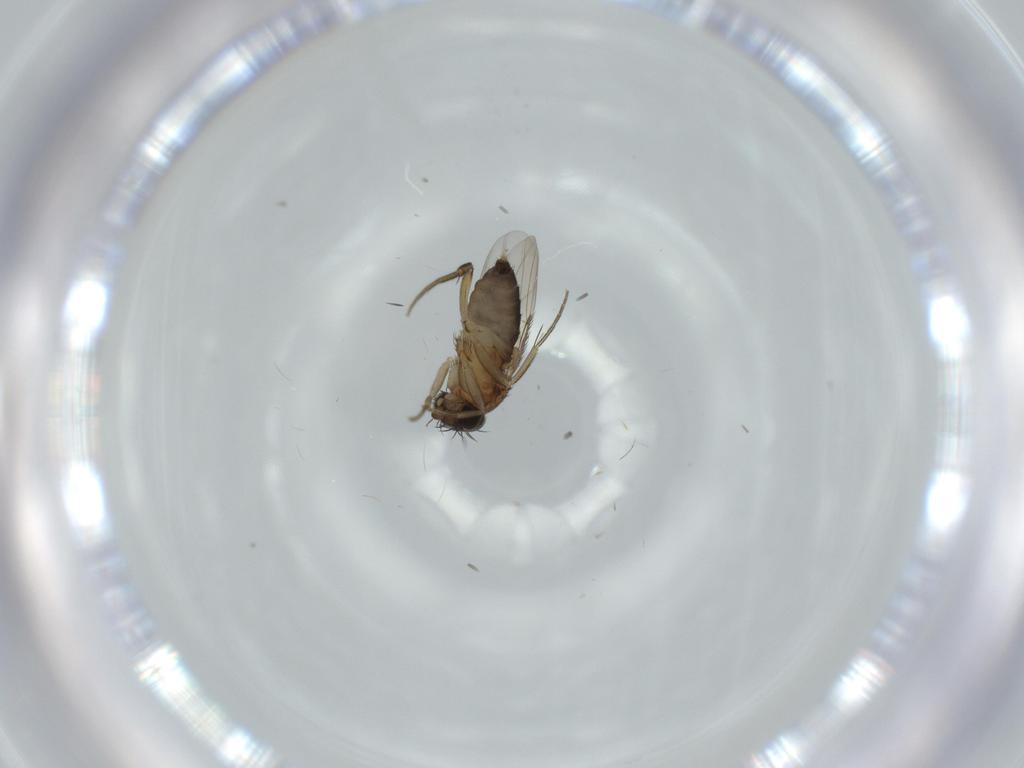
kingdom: Animalia
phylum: Arthropoda
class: Insecta
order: Diptera
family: Phoridae
